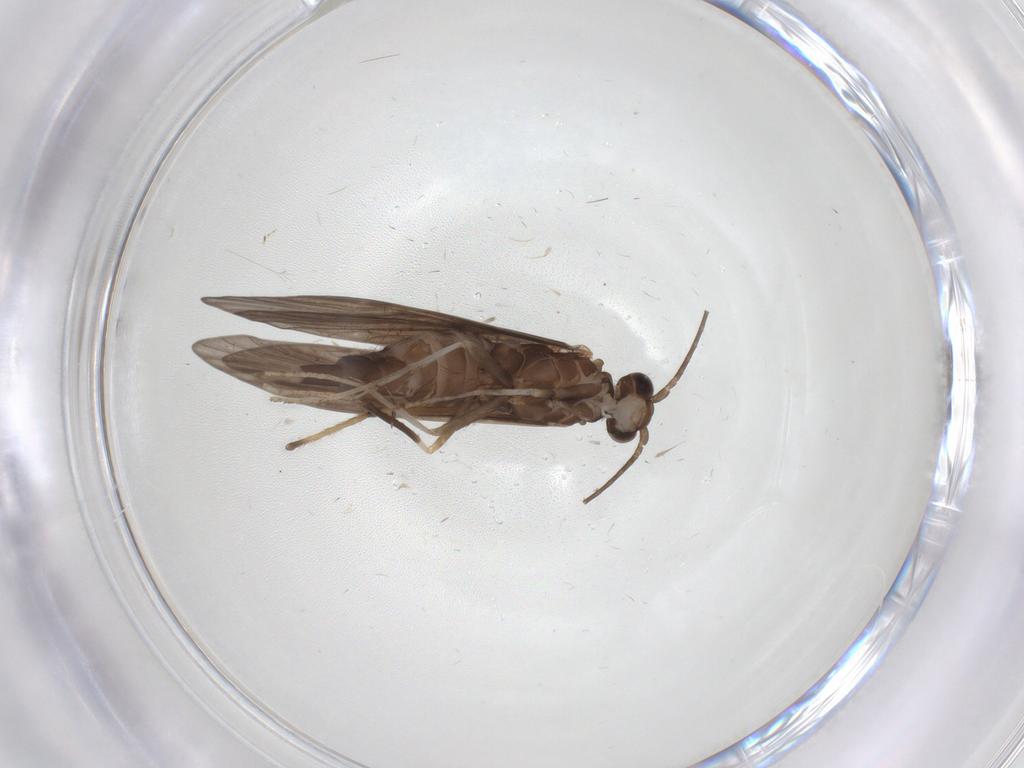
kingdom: Animalia
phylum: Arthropoda
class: Insecta
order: Trichoptera
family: Xiphocentronidae
